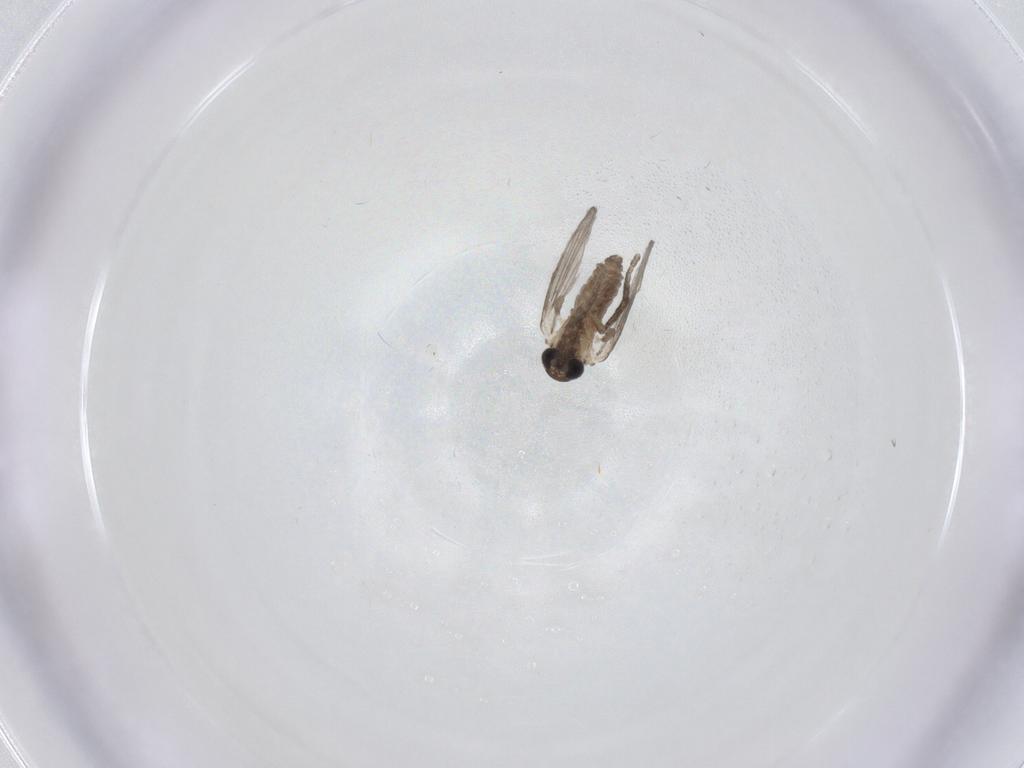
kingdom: Animalia
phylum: Arthropoda
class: Insecta
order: Diptera
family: Chironomidae
